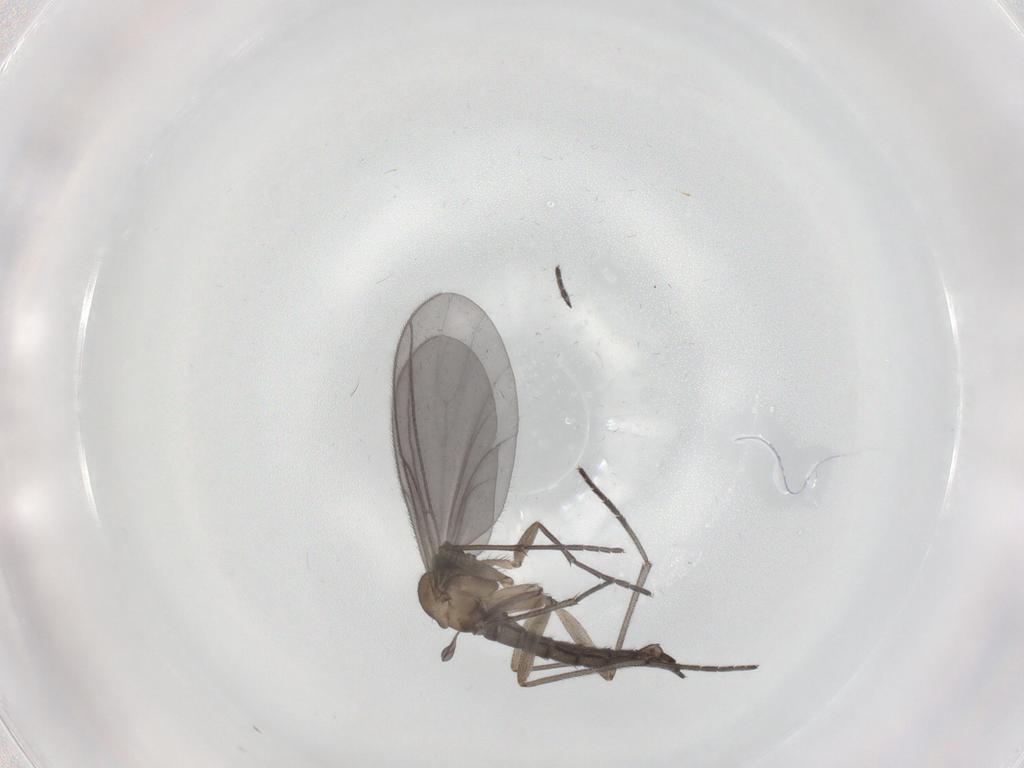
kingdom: Animalia
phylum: Arthropoda
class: Insecta
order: Diptera
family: Sciaridae
